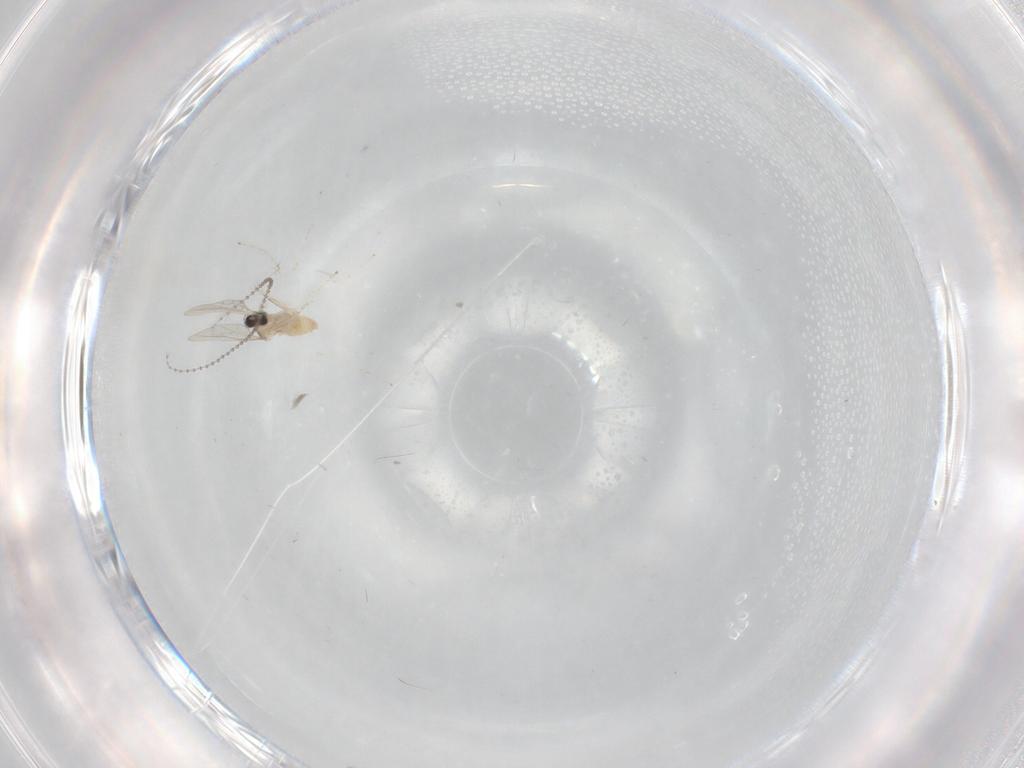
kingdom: Animalia
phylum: Arthropoda
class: Insecta
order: Diptera
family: Cecidomyiidae
